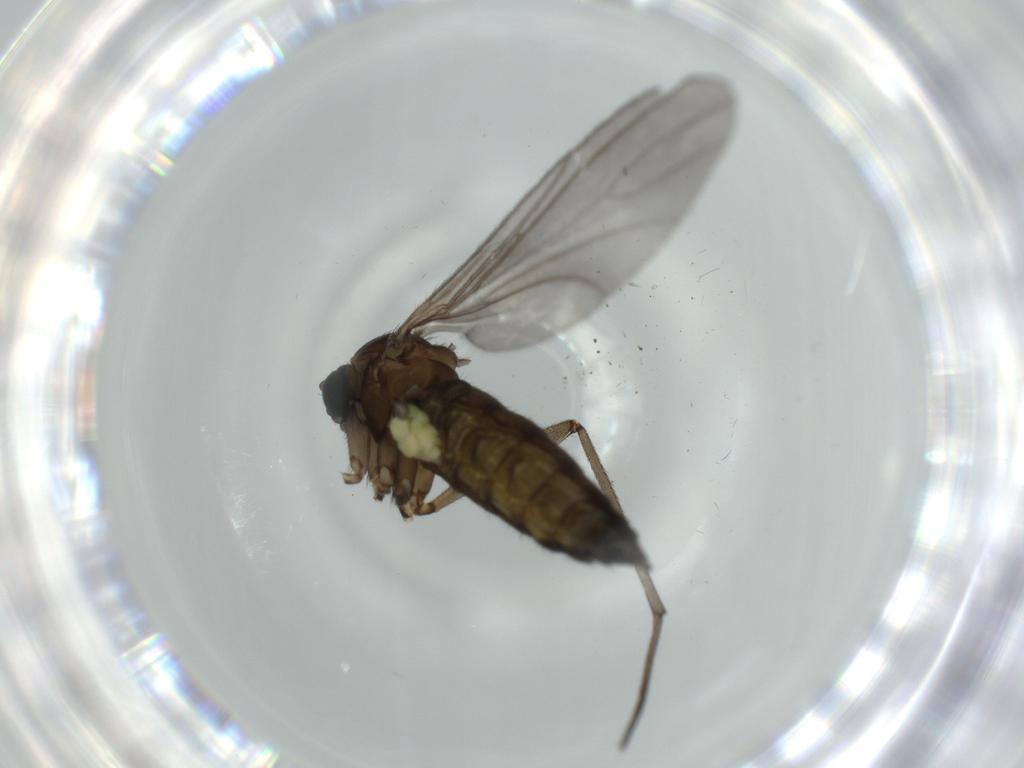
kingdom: Animalia
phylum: Arthropoda
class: Insecta
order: Diptera
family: Sciaridae
